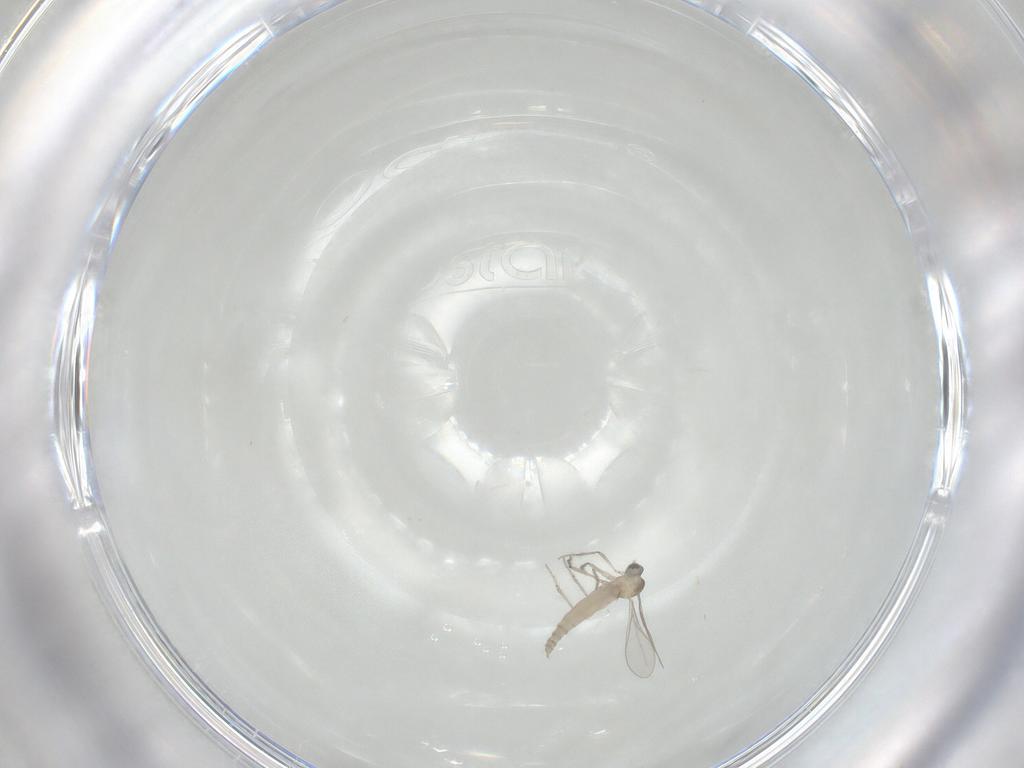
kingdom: Animalia
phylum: Arthropoda
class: Insecta
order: Diptera
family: Cecidomyiidae
